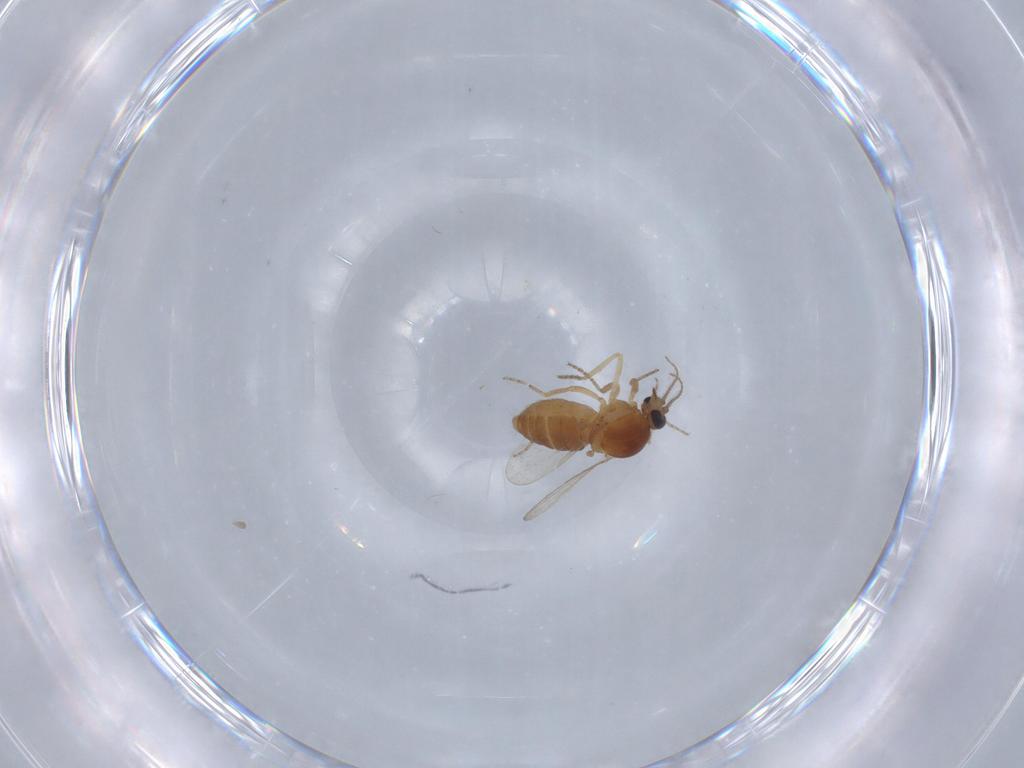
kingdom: Animalia
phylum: Arthropoda
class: Insecta
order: Diptera
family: Ceratopogonidae
